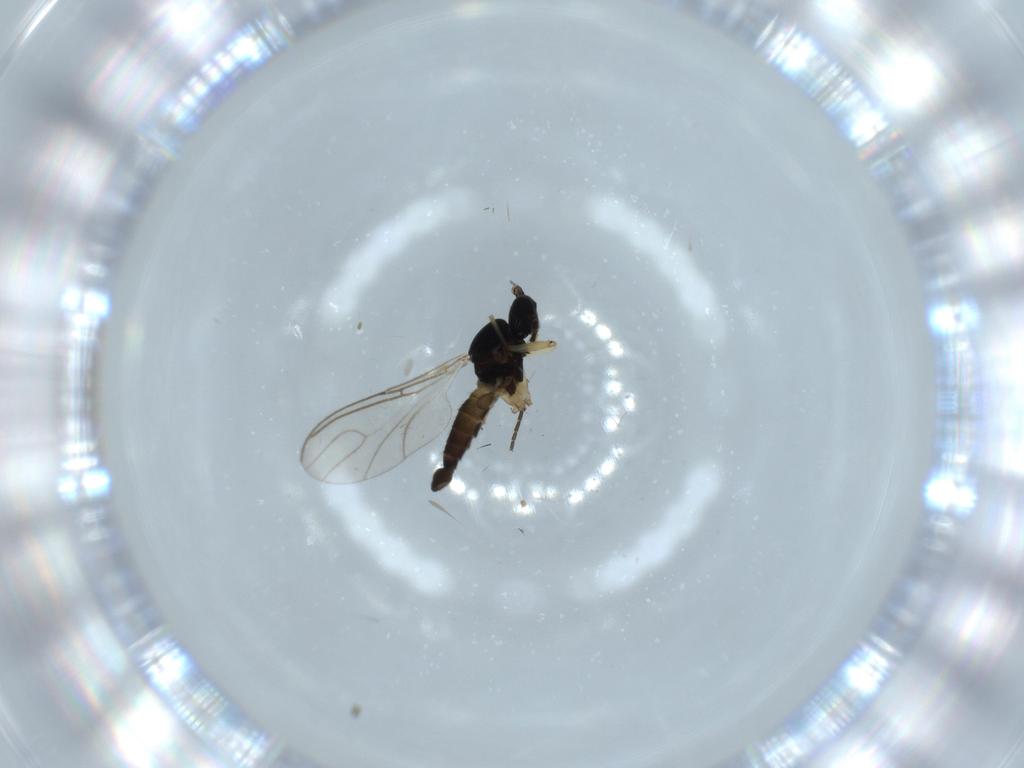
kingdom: Animalia
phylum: Arthropoda
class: Insecta
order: Diptera
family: Sciaridae
